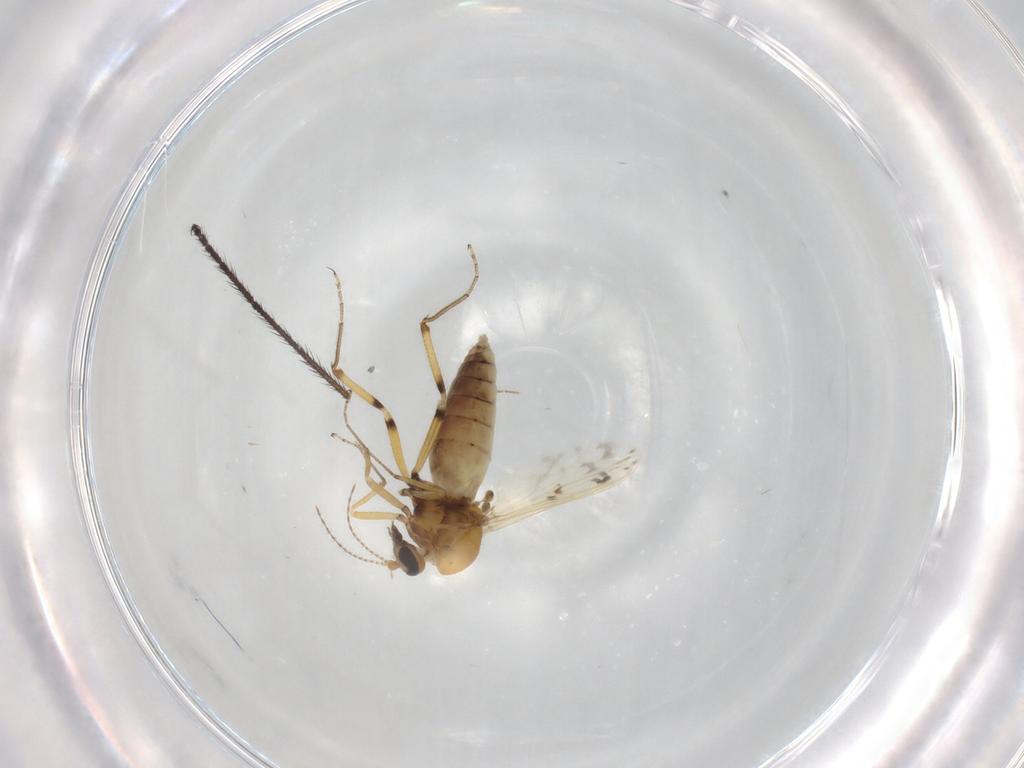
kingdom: Animalia
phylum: Arthropoda
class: Insecta
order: Diptera
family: Ceratopogonidae
